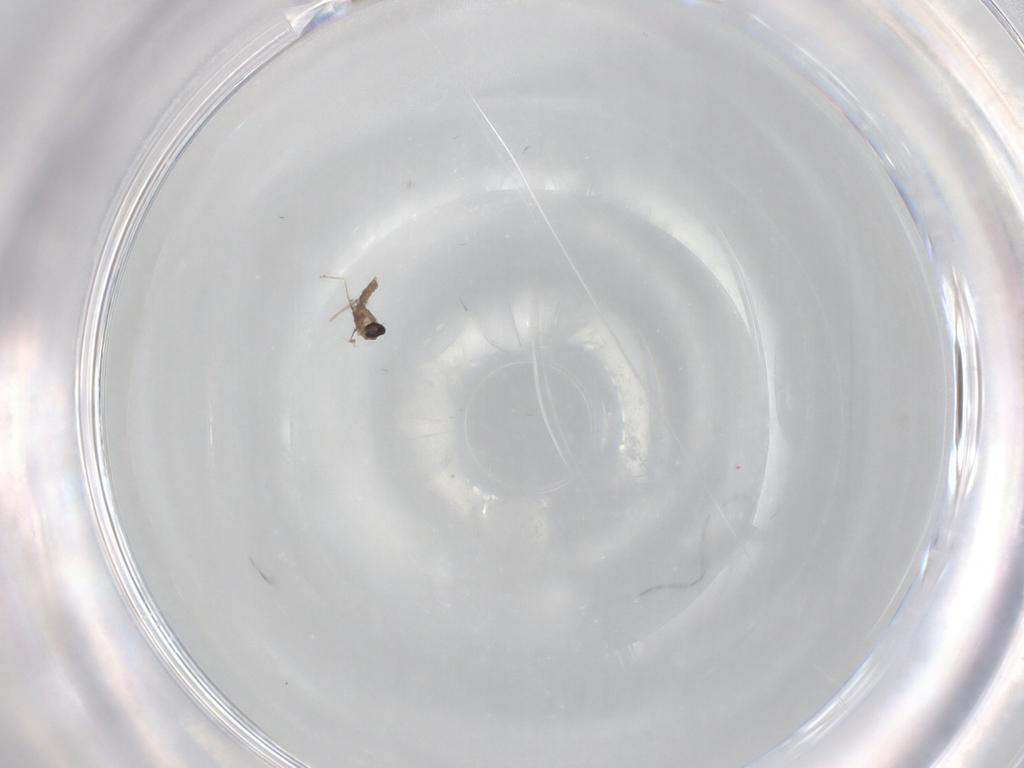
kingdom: Animalia
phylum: Arthropoda
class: Insecta
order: Diptera
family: Cecidomyiidae
